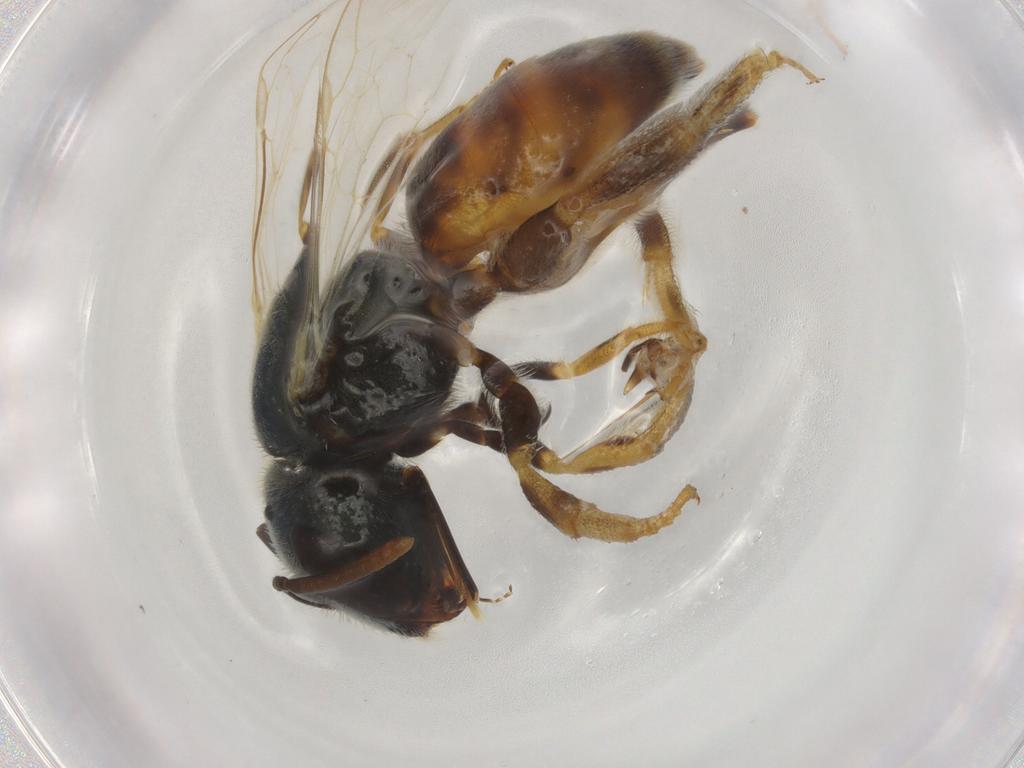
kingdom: Animalia
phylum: Arthropoda
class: Insecta
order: Hymenoptera
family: Halictidae
